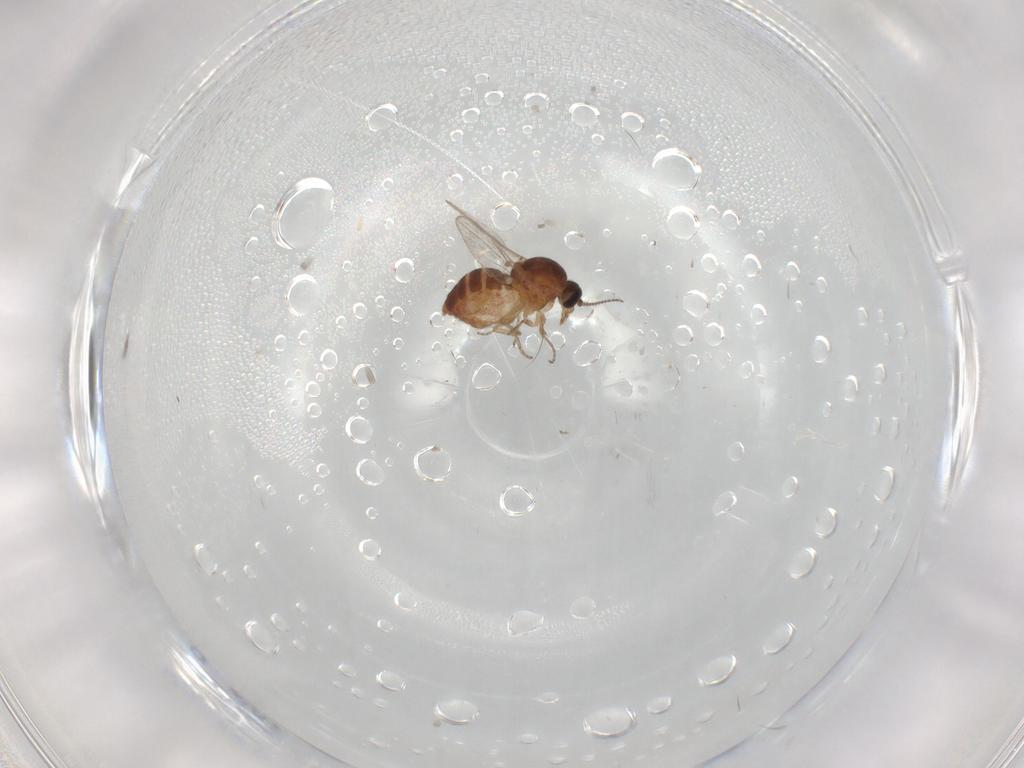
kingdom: Animalia
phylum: Arthropoda
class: Insecta
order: Diptera
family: Ceratopogonidae
